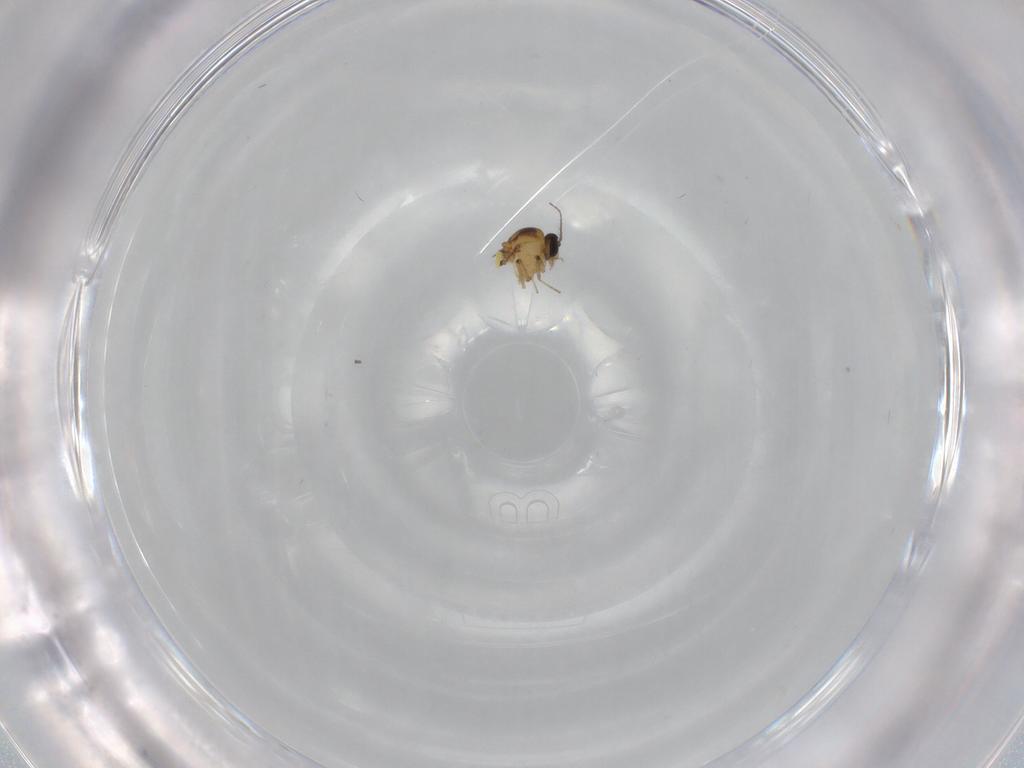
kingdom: Animalia
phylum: Arthropoda
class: Insecta
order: Diptera
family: Ceratopogonidae
